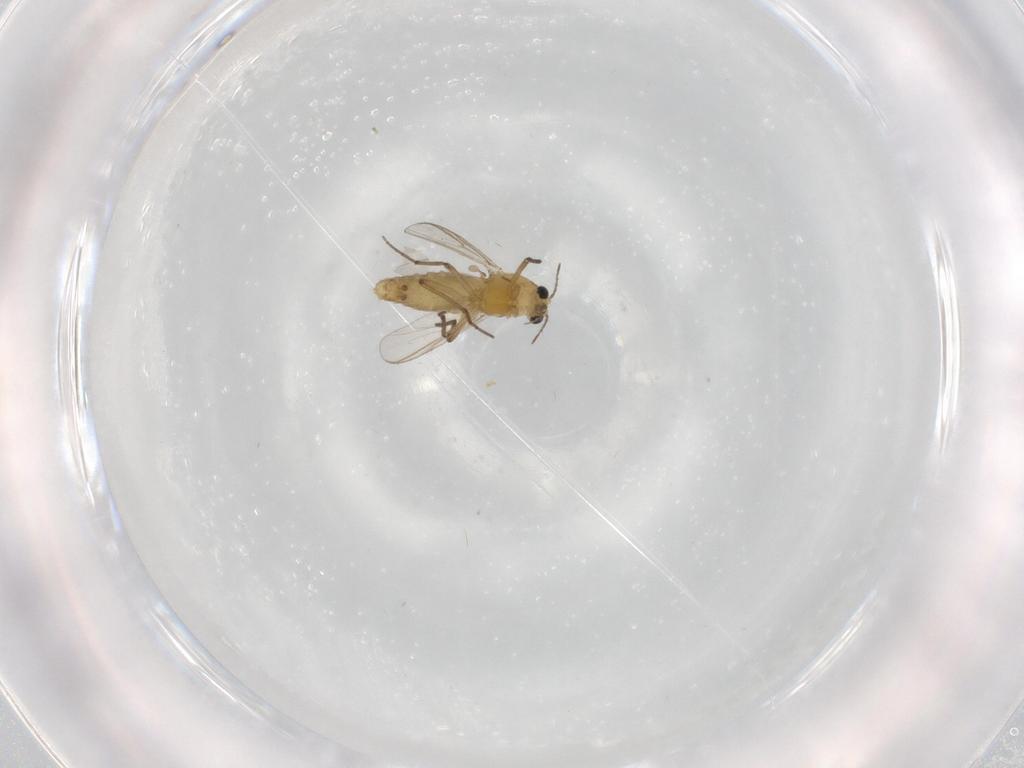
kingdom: Animalia
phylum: Arthropoda
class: Insecta
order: Diptera
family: Chironomidae
